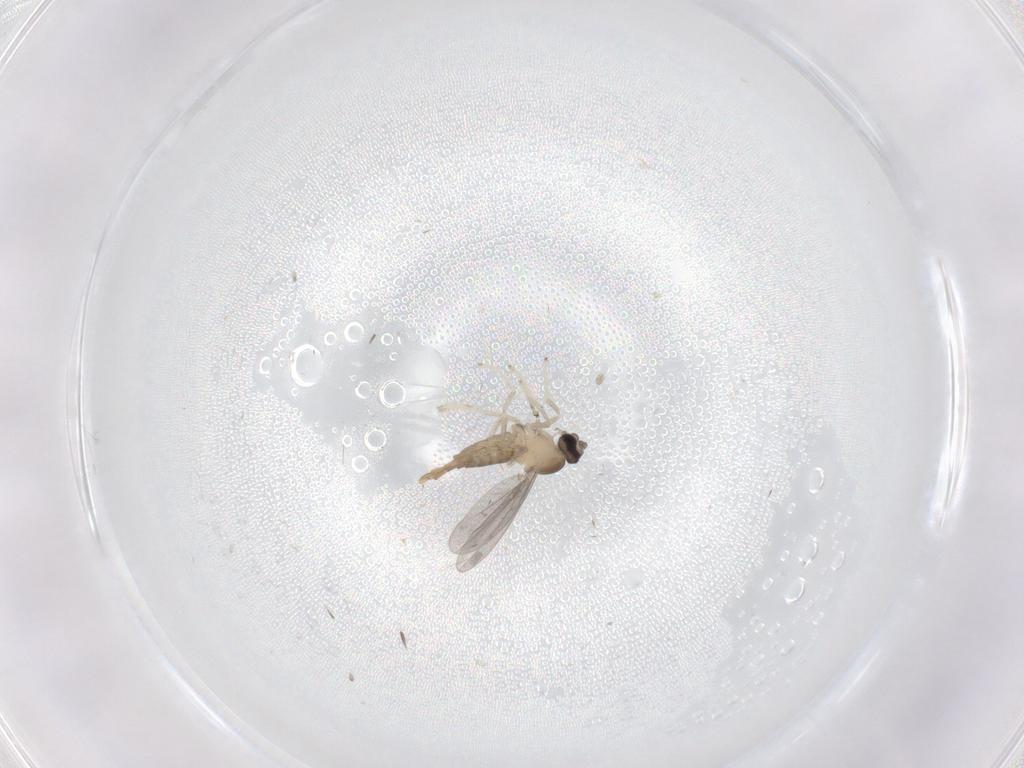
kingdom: Animalia
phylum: Arthropoda
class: Insecta
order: Diptera
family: Cecidomyiidae
